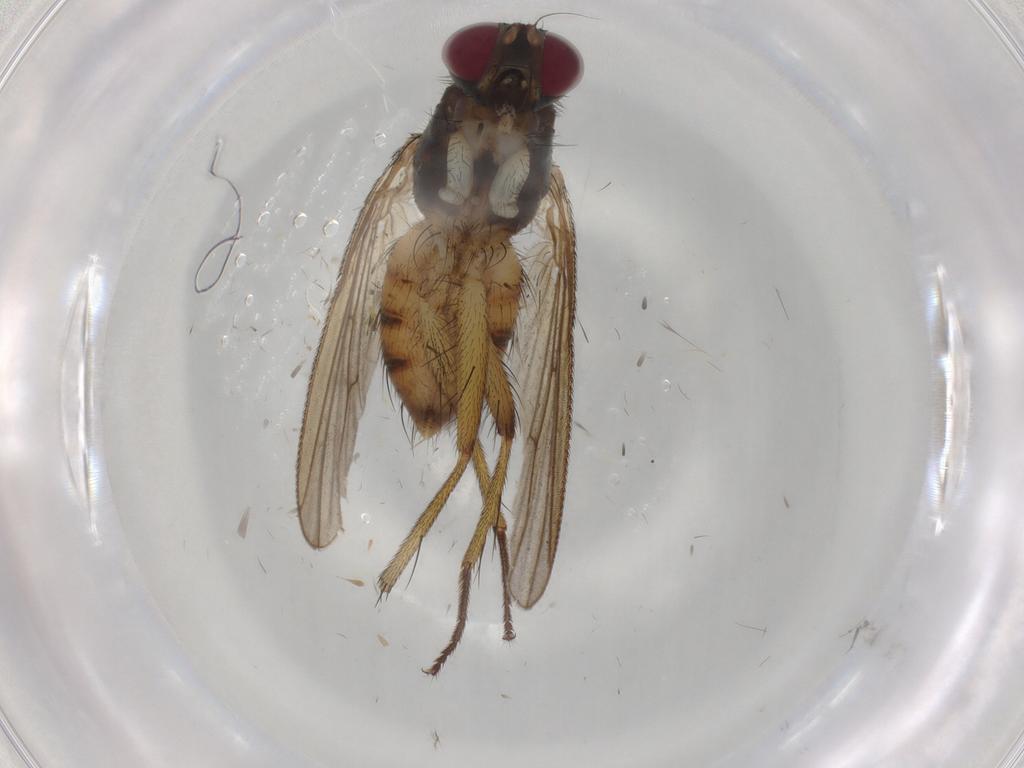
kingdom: Animalia
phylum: Arthropoda
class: Insecta
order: Diptera
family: Muscidae
